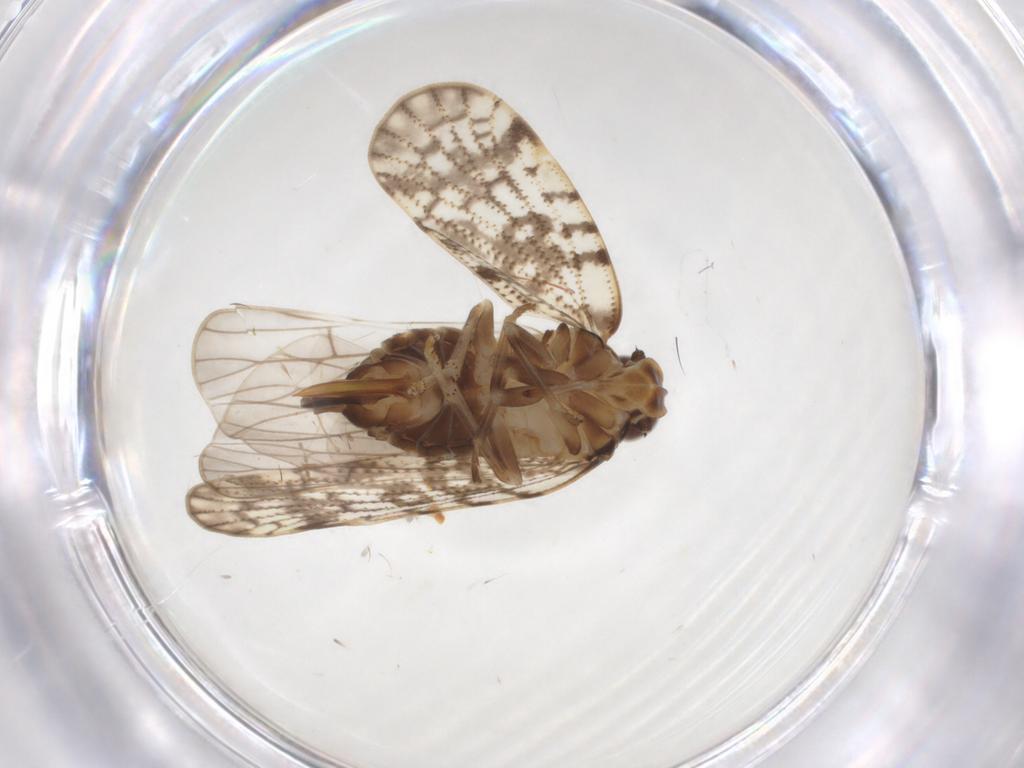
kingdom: Animalia
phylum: Arthropoda
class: Insecta
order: Diptera
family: Cecidomyiidae
